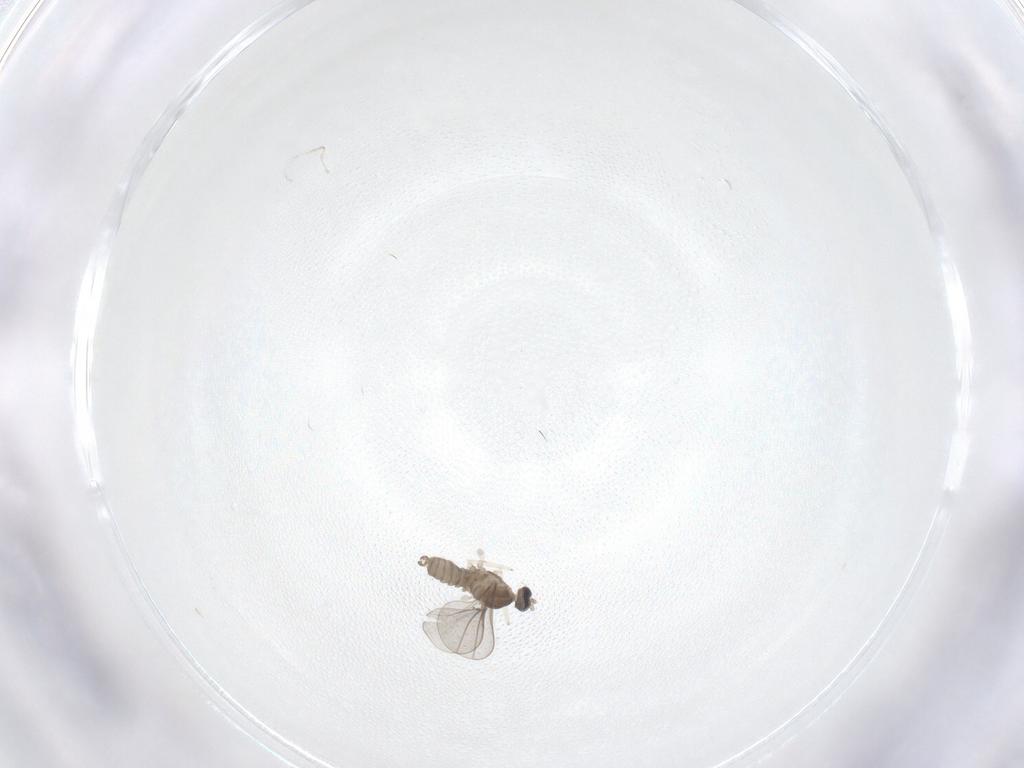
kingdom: Animalia
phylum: Arthropoda
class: Insecta
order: Diptera
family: Cecidomyiidae
